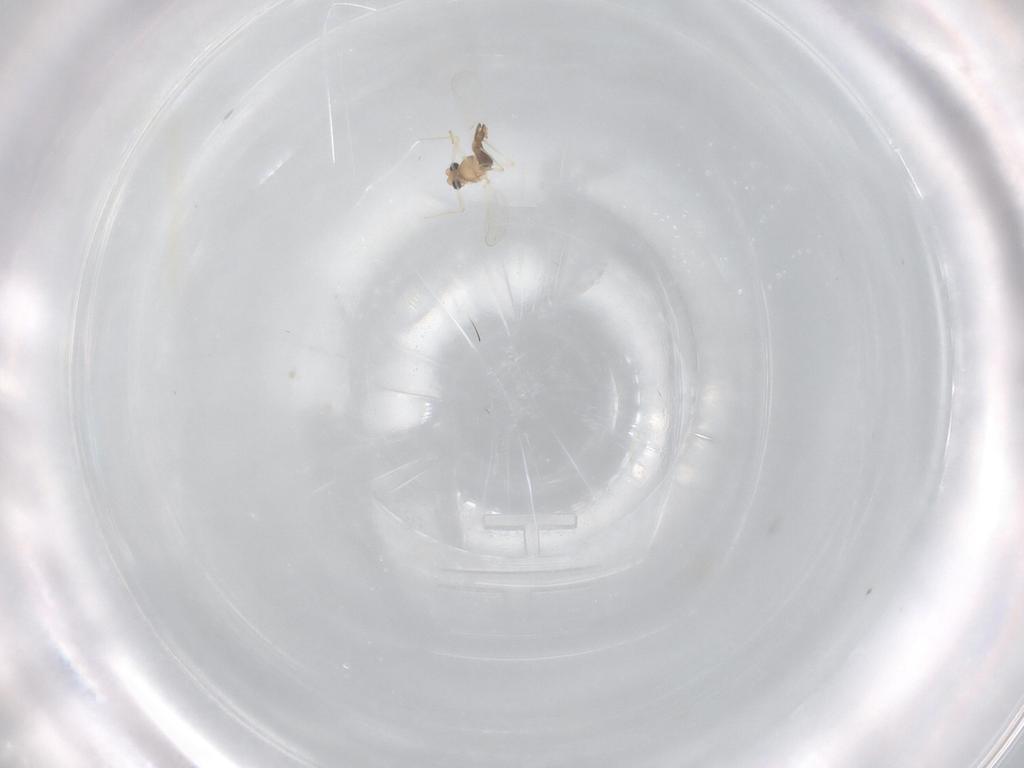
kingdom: Animalia
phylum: Arthropoda
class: Insecta
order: Diptera
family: Chironomidae
